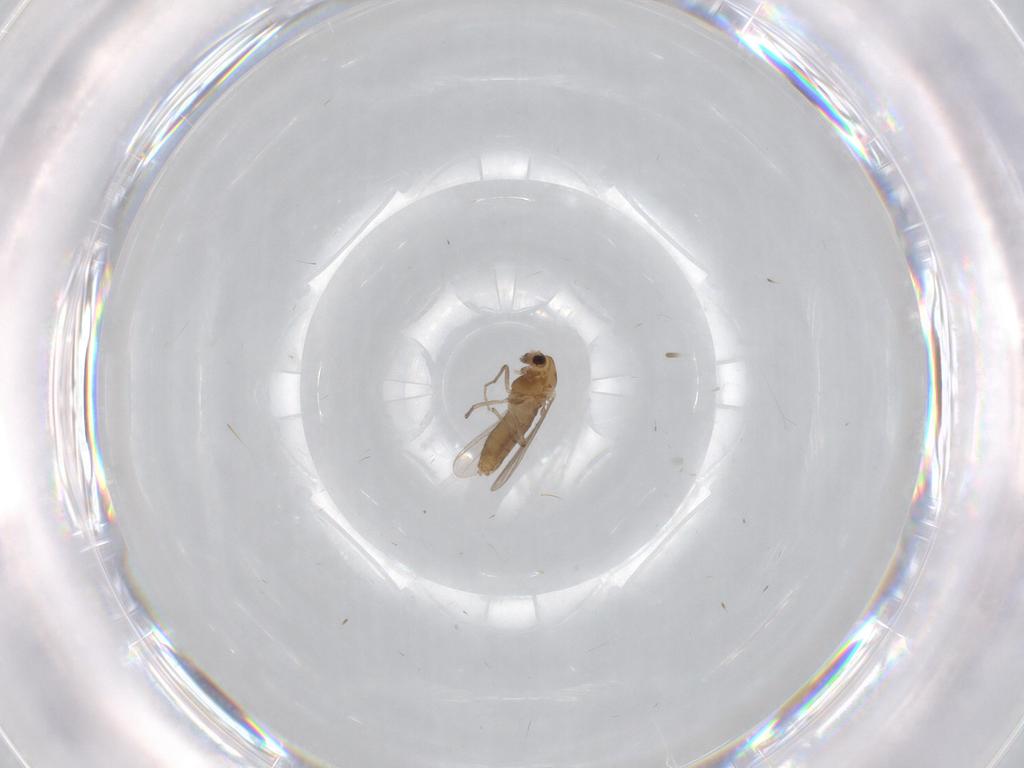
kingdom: Animalia
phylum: Arthropoda
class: Insecta
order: Diptera
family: Chironomidae
